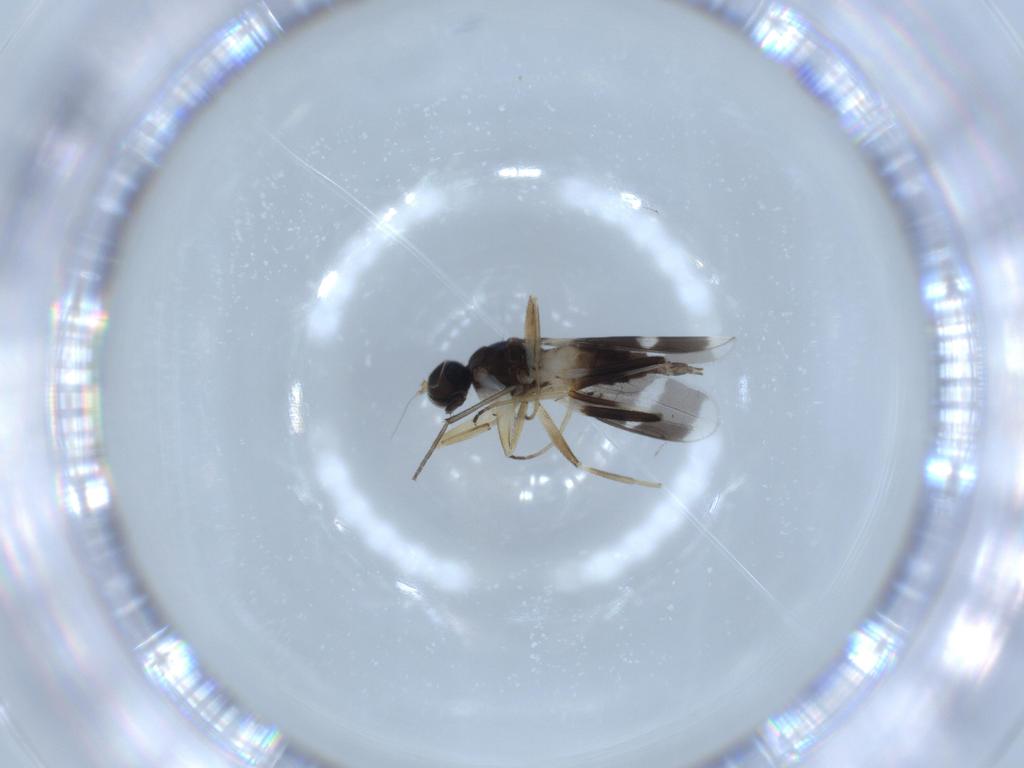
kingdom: Animalia
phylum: Arthropoda
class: Insecta
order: Diptera
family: Hybotidae
